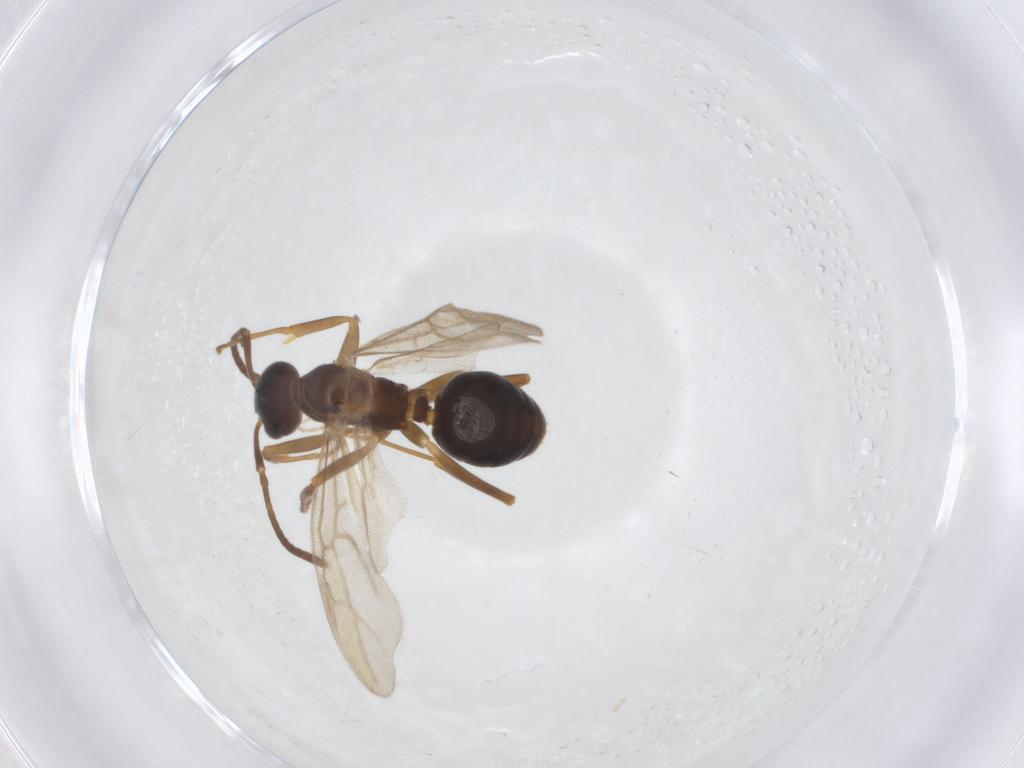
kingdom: Animalia
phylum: Arthropoda
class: Insecta
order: Hymenoptera
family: Formicidae
